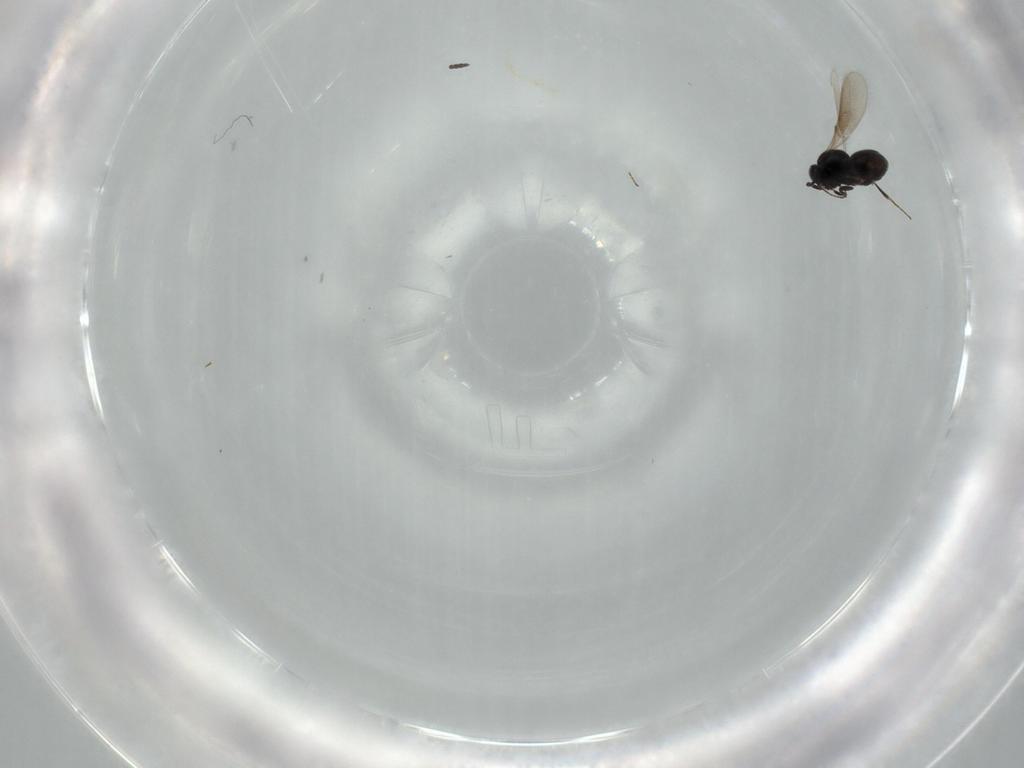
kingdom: Animalia
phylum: Arthropoda
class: Insecta
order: Hymenoptera
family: Scelionidae
